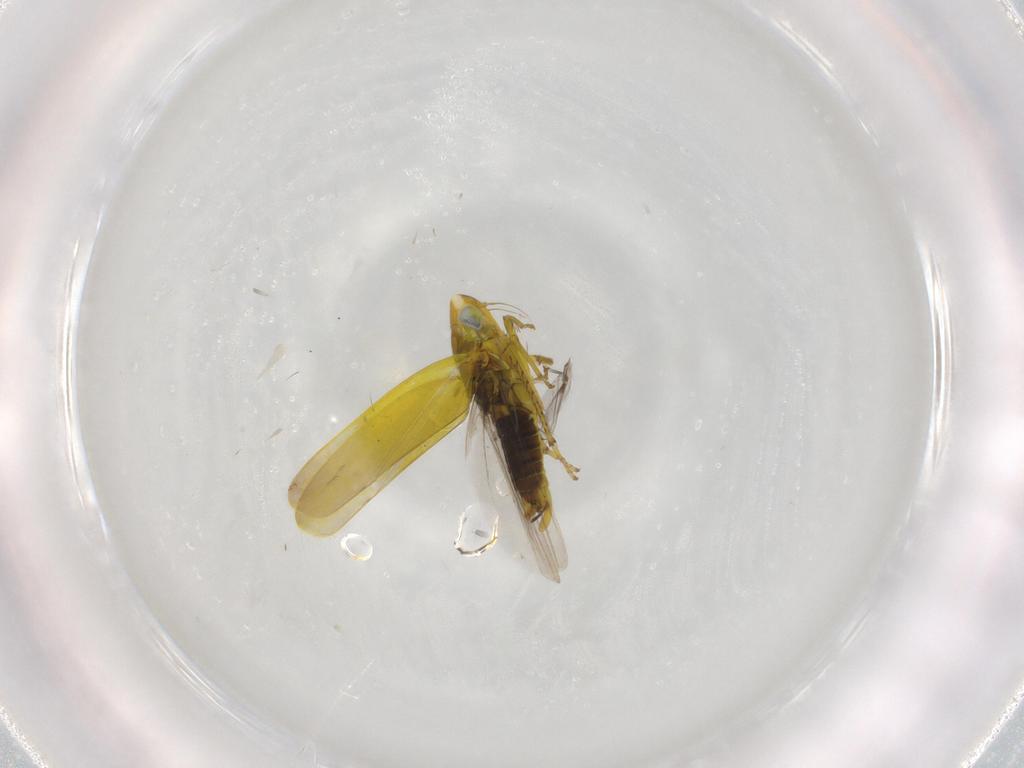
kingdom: Animalia
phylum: Arthropoda
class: Insecta
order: Hemiptera
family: Cicadellidae
